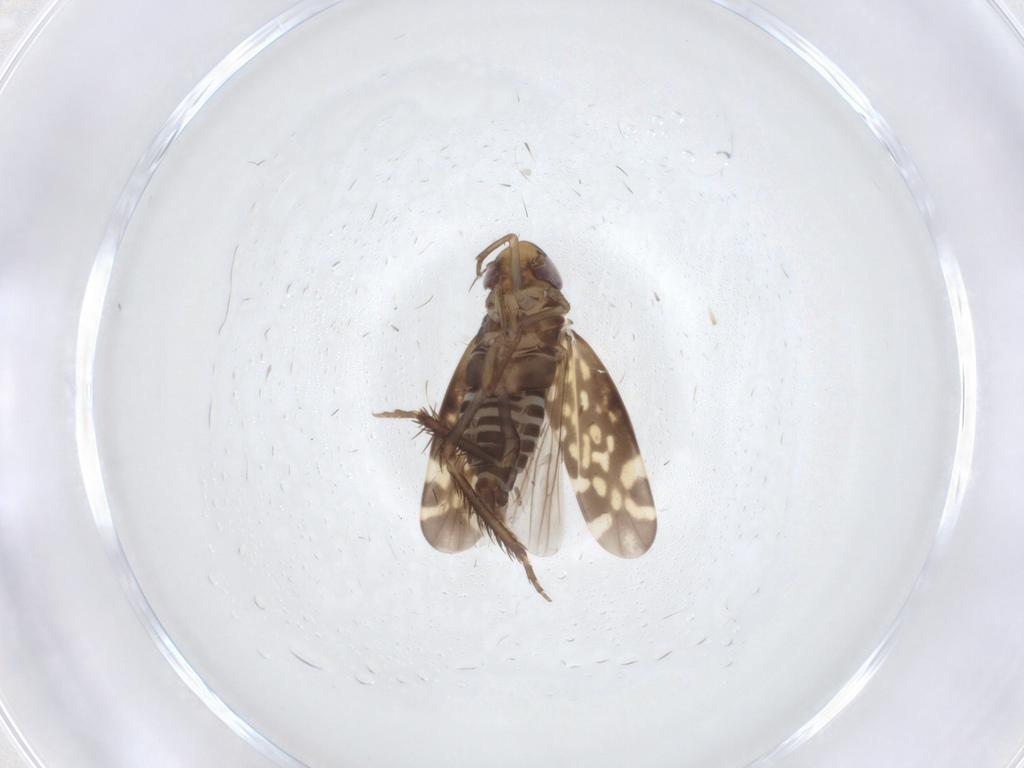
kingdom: Animalia
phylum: Arthropoda
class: Insecta
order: Hemiptera
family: Cicadellidae
